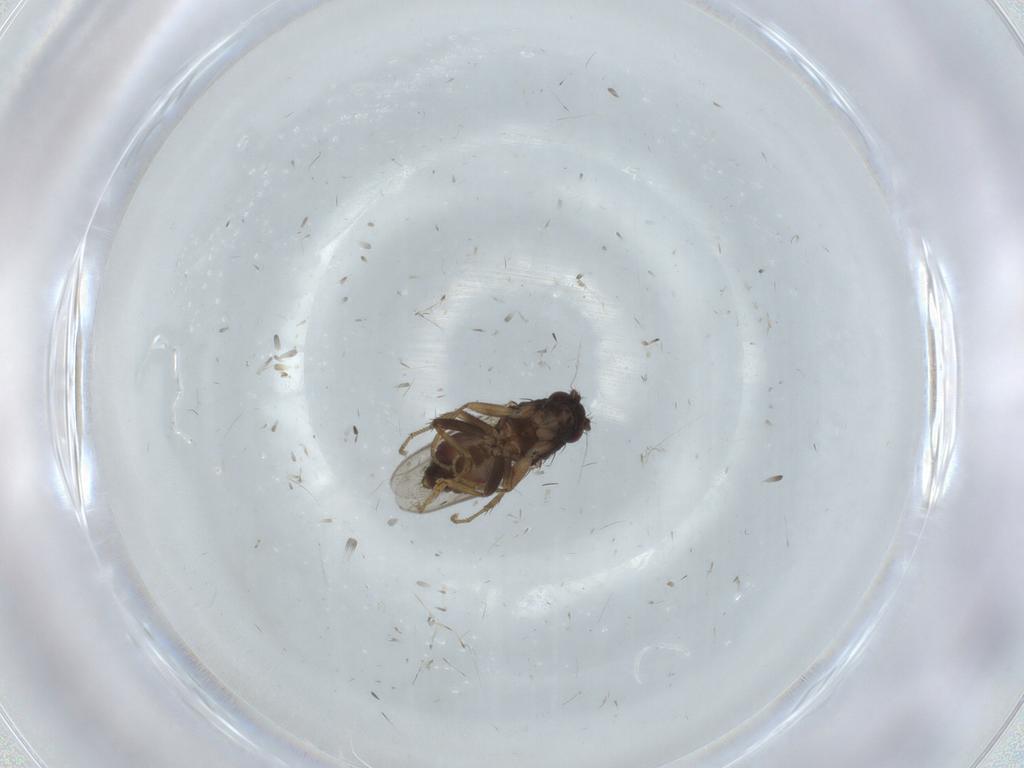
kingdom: Animalia
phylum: Arthropoda
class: Insecta
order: Diptera
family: Sphaeroceridae
